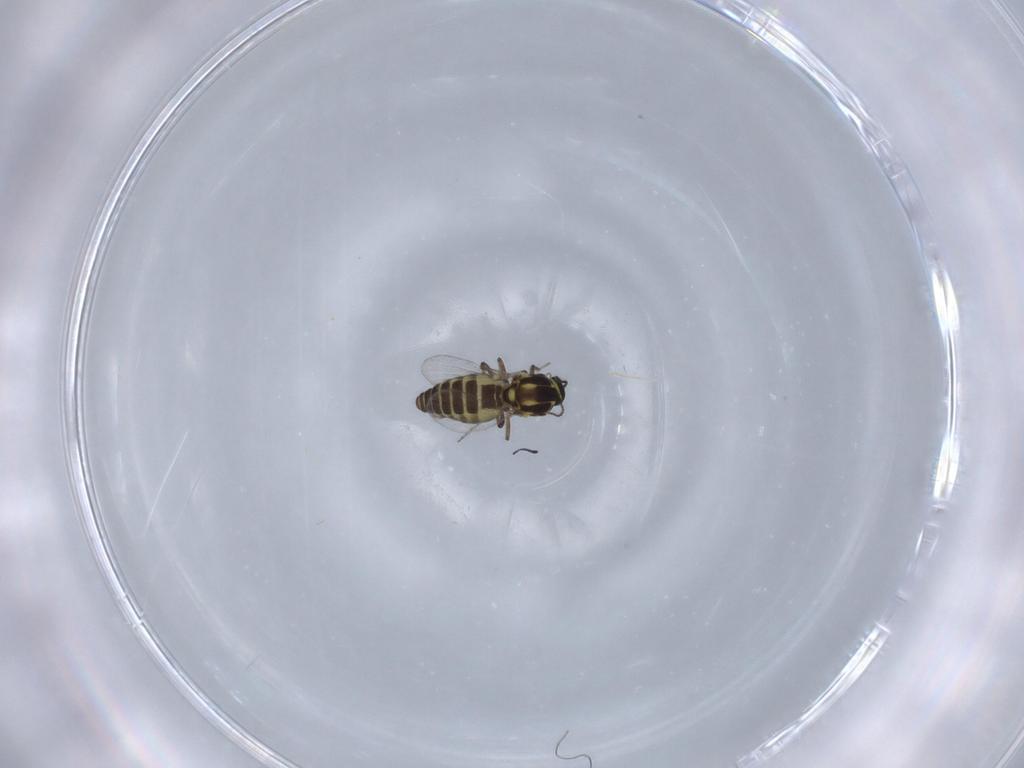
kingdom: Animalia
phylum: Arthropoda
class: Insecta
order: Diptera
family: Ceratopogonidae
